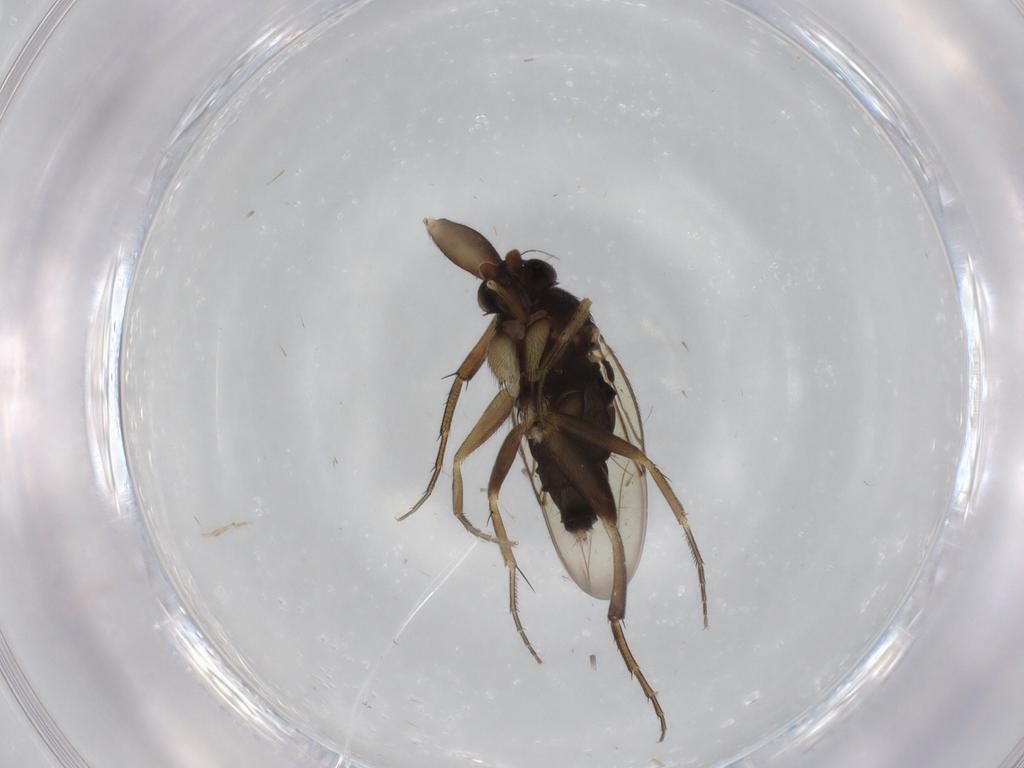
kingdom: Animalia
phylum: Arthropoda
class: Insecta
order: Diptera
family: Phoridae
